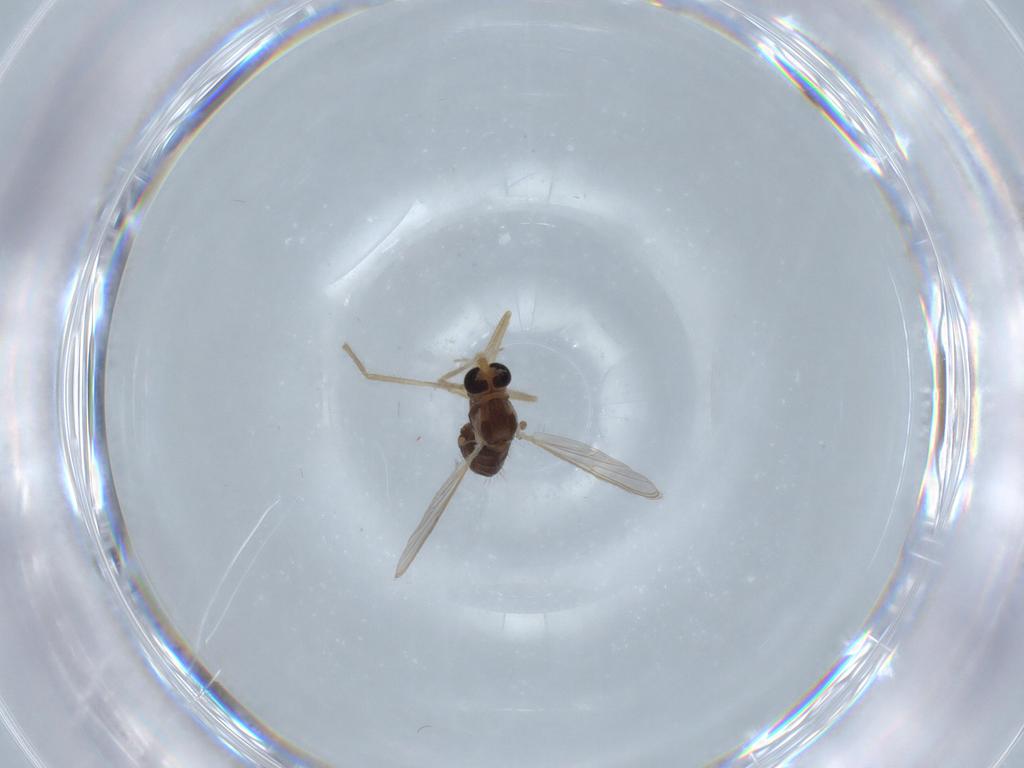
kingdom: Animalia
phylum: Arthropoda
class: Insecta
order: Diptera
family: Chironomidae
